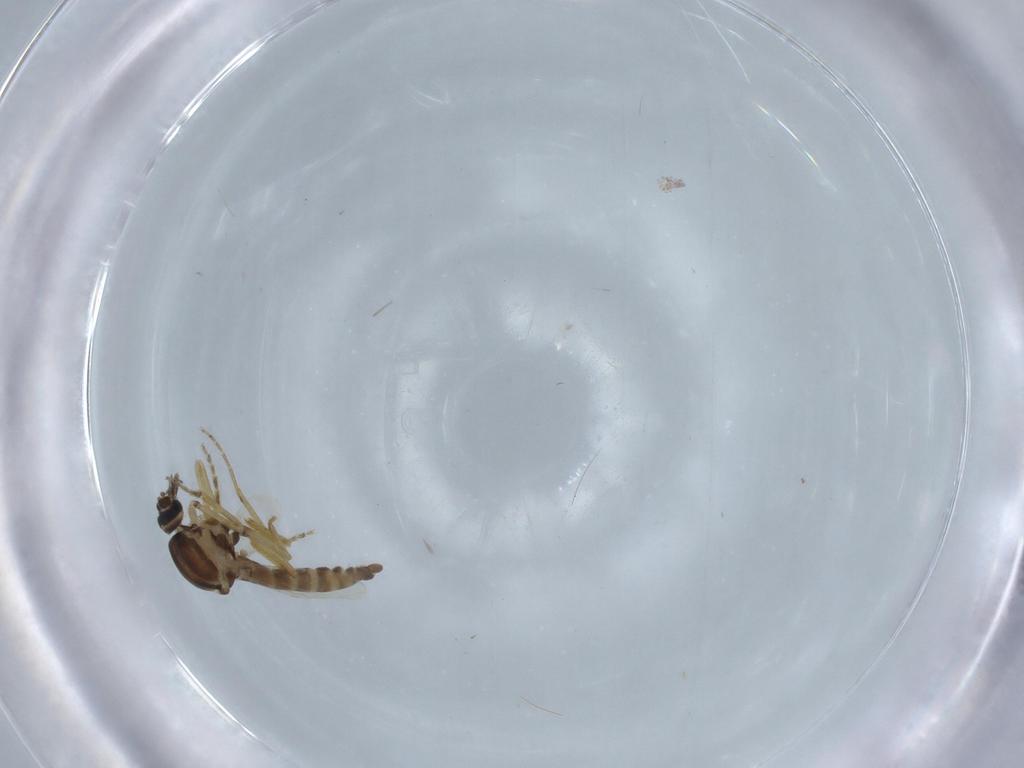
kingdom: Animalia
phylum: Arthropoda
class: Insecta
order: Diptera
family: Ceratopogonidae
